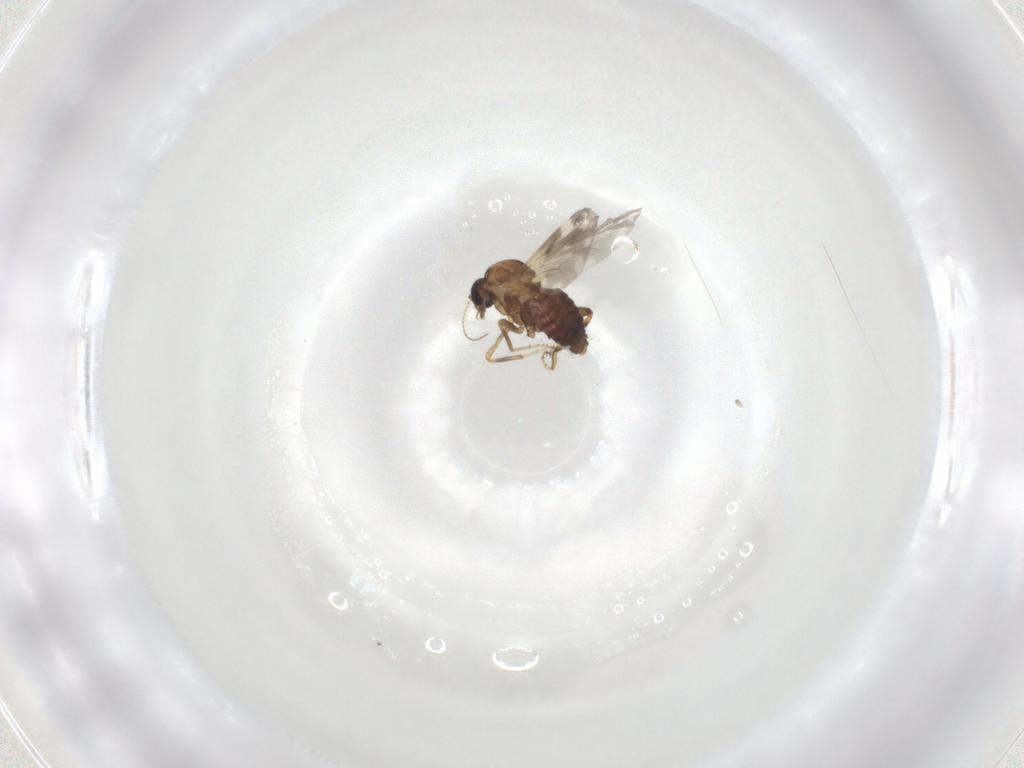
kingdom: Animalia
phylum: Arthropoda
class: Insecta
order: Diptera
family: Ceratopogonidae
